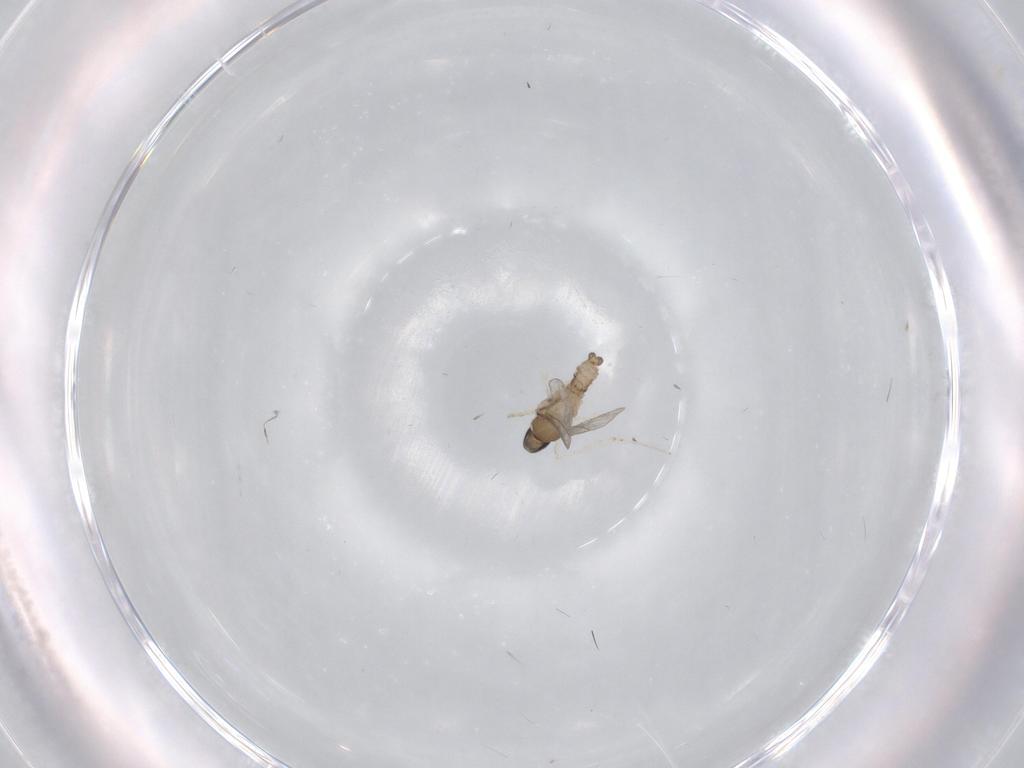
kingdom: Animalia
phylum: Arthropoda
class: Insecta
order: Diptera
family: Cecidomyiidae
